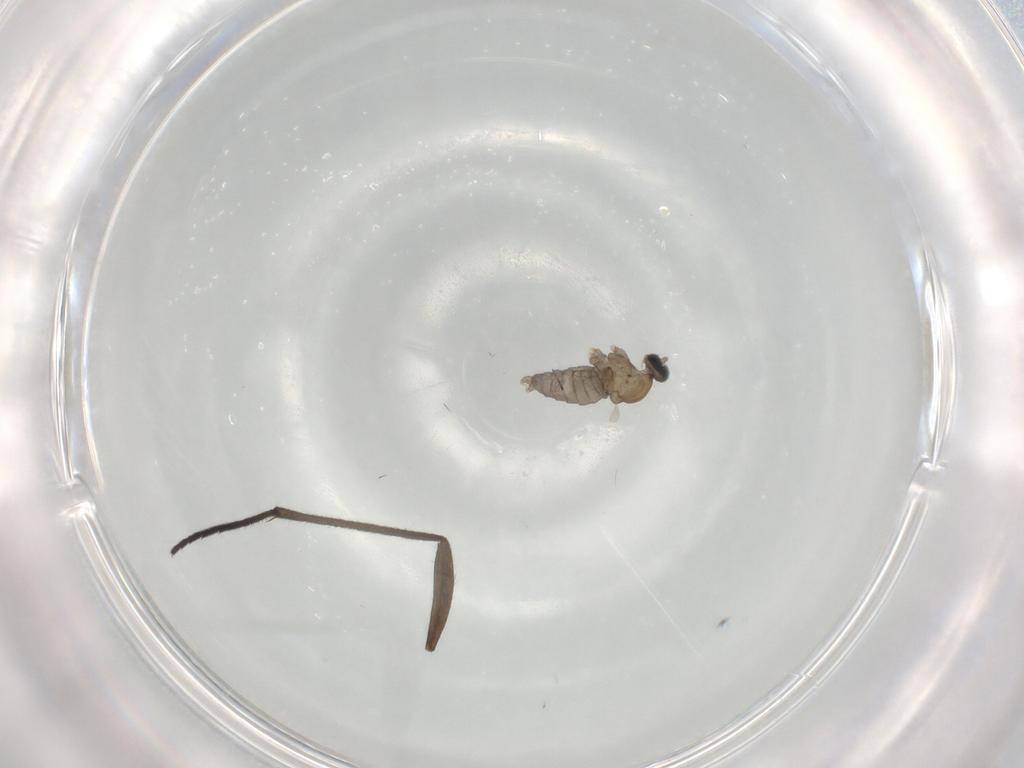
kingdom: Animalia
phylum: Arthropoda
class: Insecta
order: Diptera
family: Sciaridae
